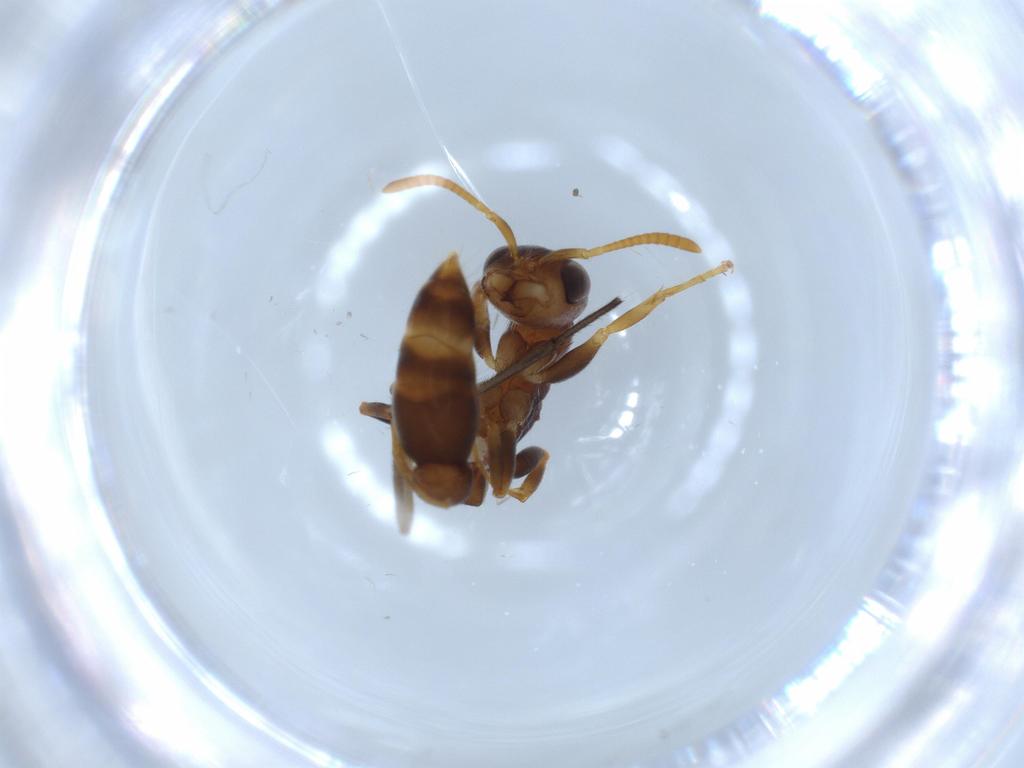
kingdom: Animalia
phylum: Arthropoda
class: Insecta
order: Hymenoptera
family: Formicidae
